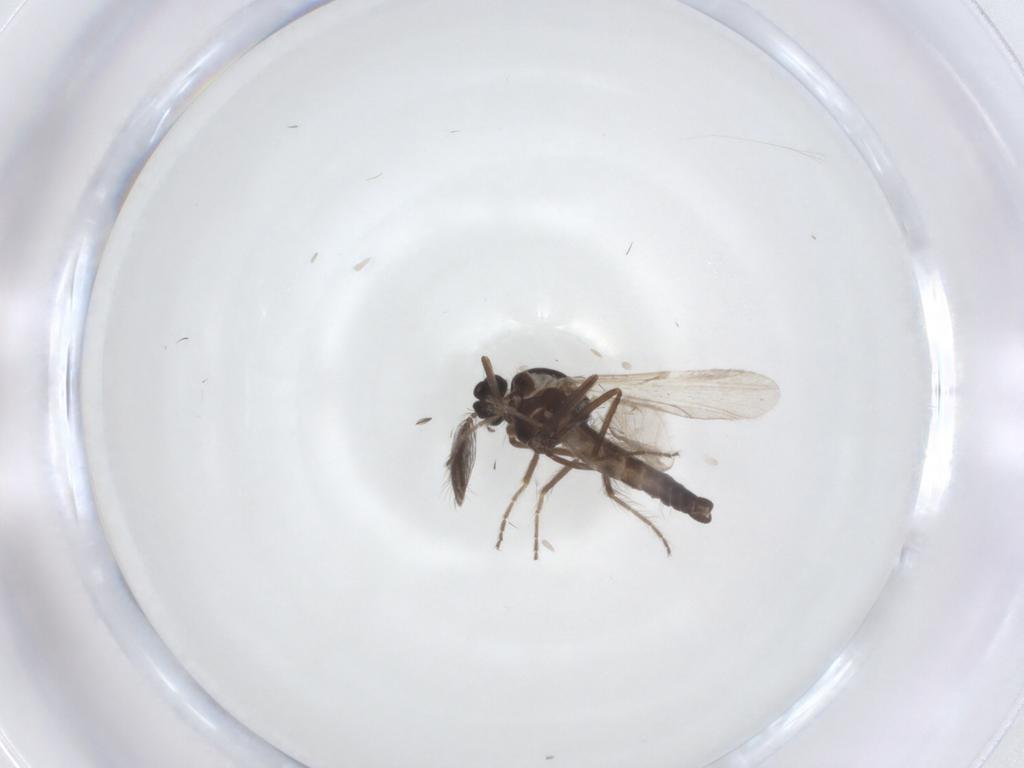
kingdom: Animalia
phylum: Arthropoda
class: Insecta
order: Diptera
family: Ceratopogonidae
